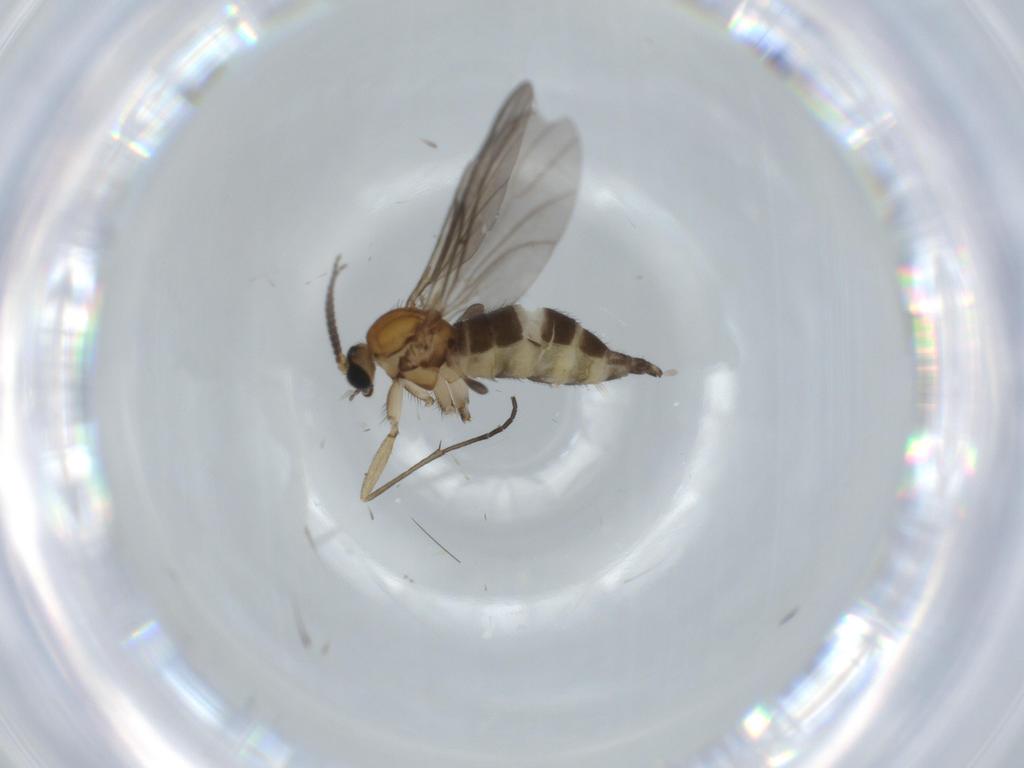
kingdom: Animalia
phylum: Arthropoda
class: Insecta
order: Diptera
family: Sciaridae
